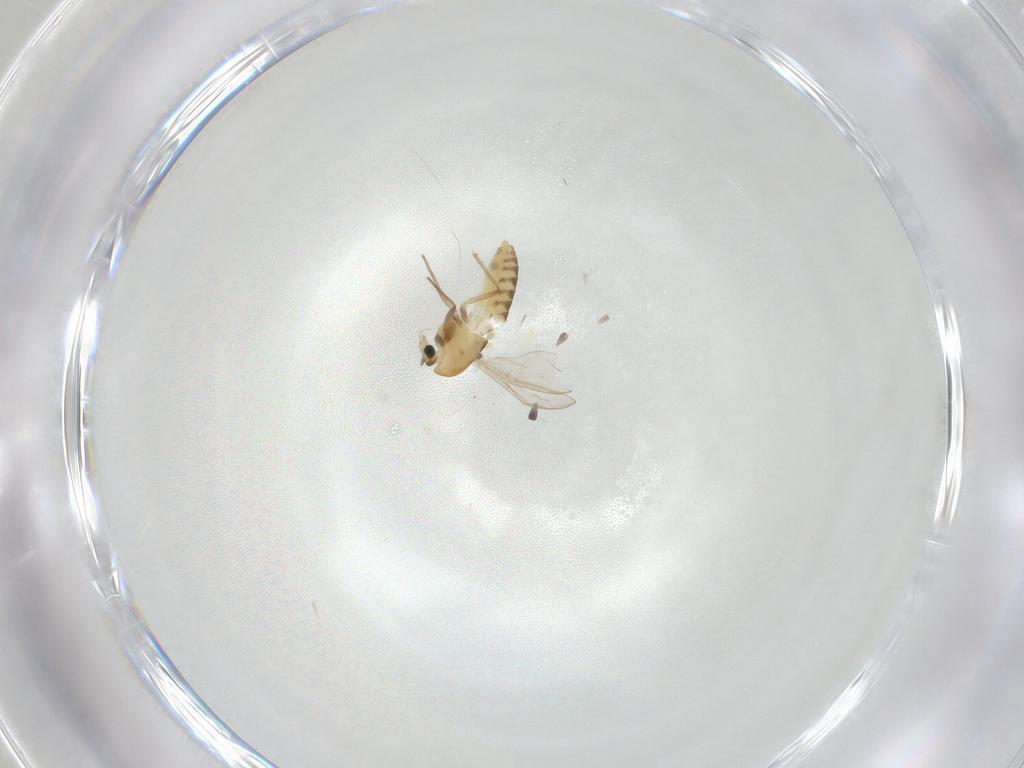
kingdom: Animalia
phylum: Arthropoda
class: Insecta
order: Diptera
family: Chironomidae
